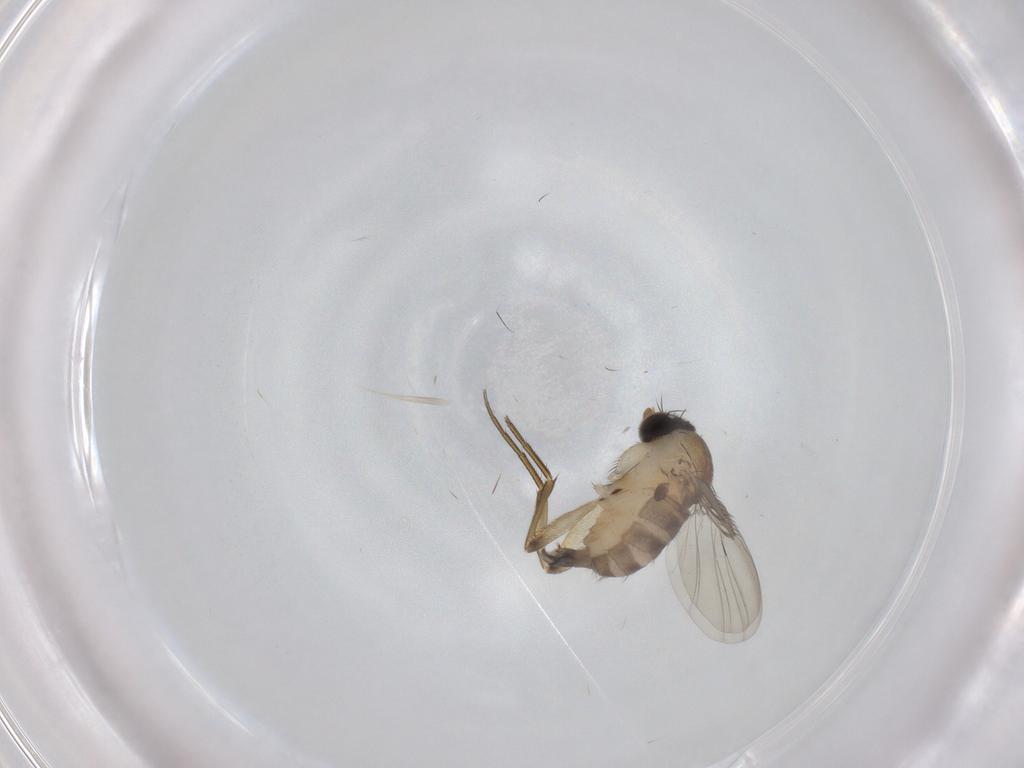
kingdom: Animalia
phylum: Arthropoda
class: Insecta
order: Diptera
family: Phoridae
